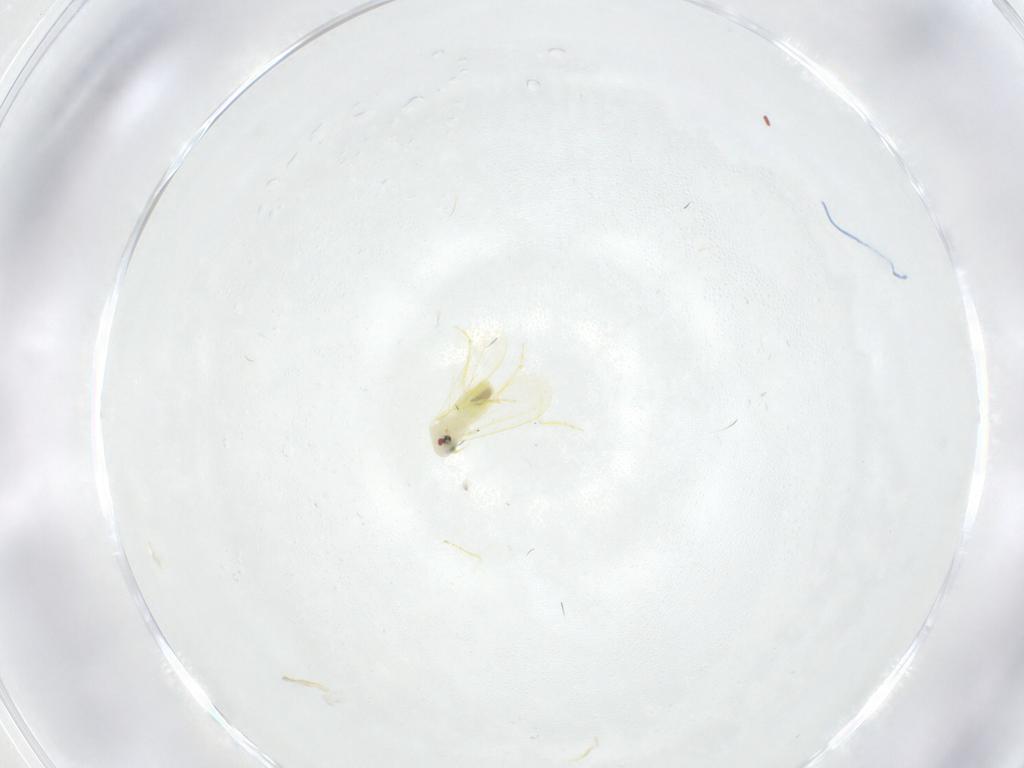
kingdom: Animalia
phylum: Arthropoda
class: Insecta
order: Hemiptera
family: Aleyrodidae
